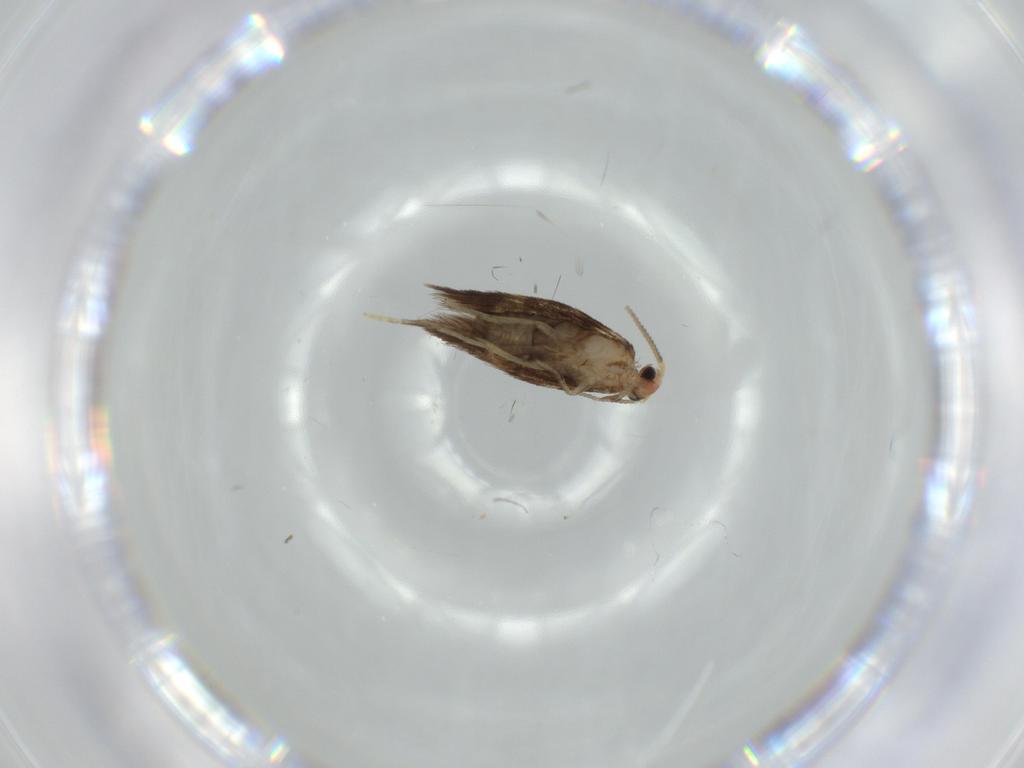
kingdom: Animalia
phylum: Arthropoda
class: Insecta
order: Lepidoptera
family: Nepticulidae
